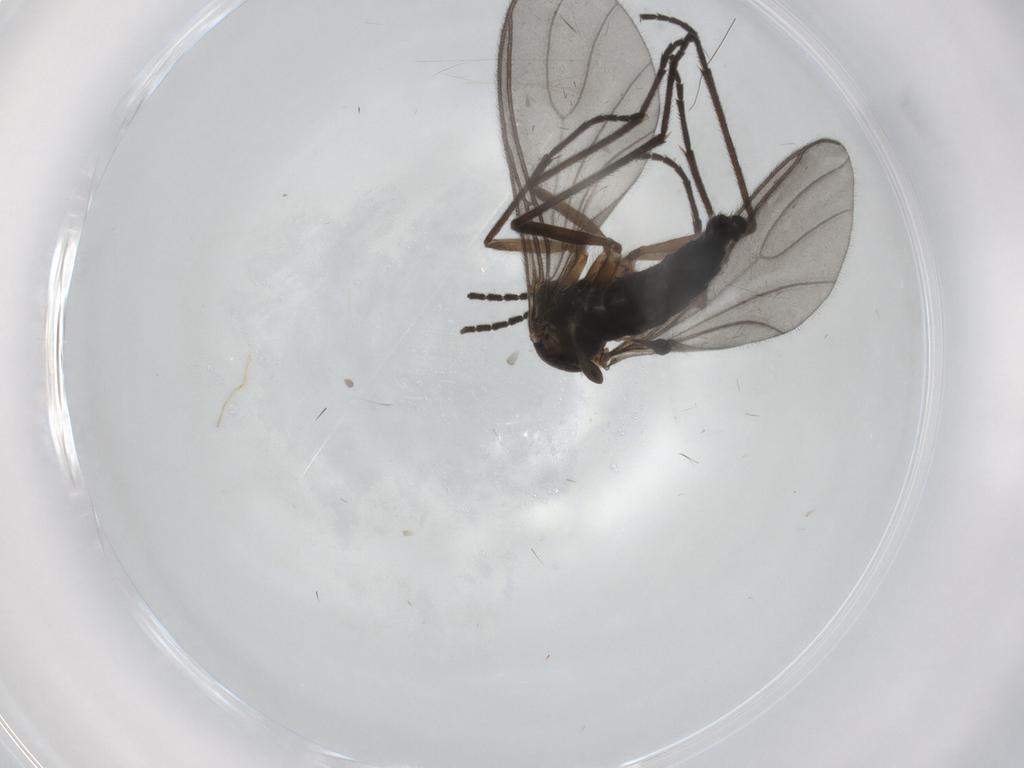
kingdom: Animalia
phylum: Arthropoda
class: Insecta
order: Diptera
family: Sciaridae
